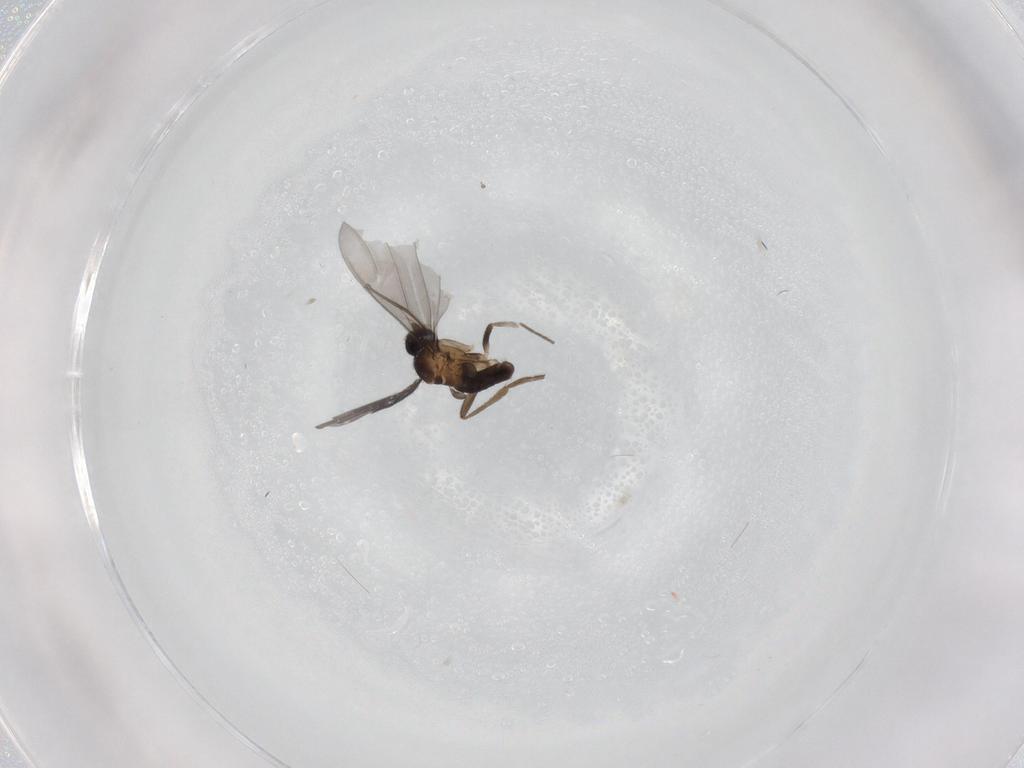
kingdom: Animalia
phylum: Arthropoda
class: Insecta
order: Diptera
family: Phoridae
